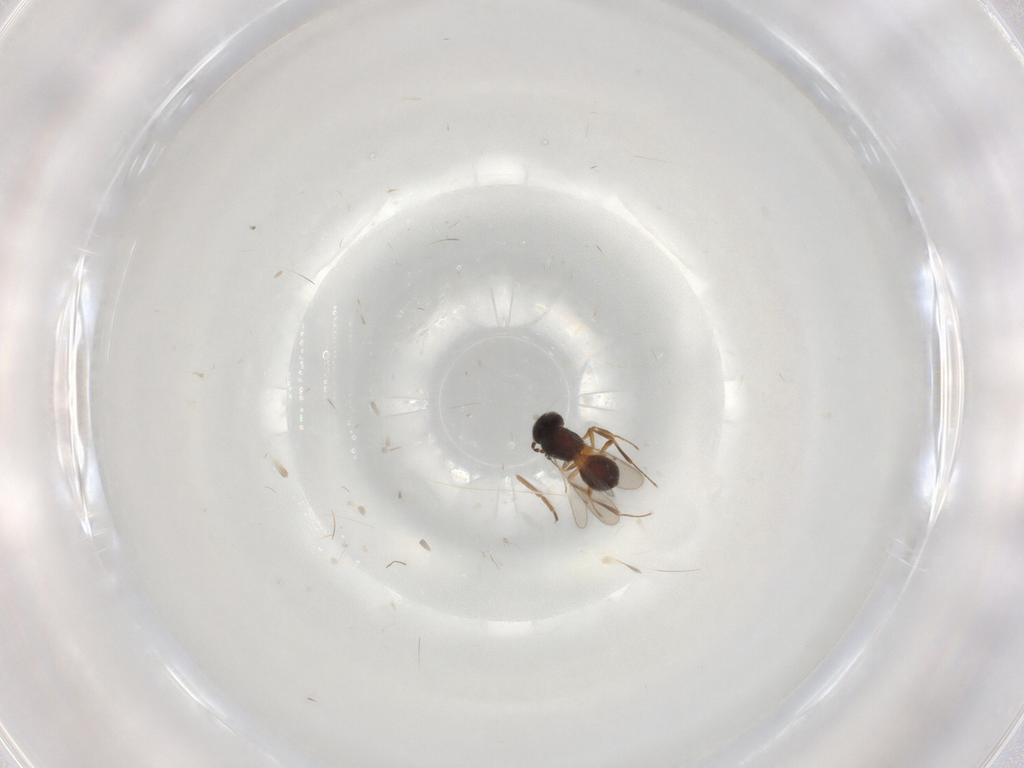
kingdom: Animalia
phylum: Arthropoda
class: Insecta
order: Hymenoptera
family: Scelionidae
